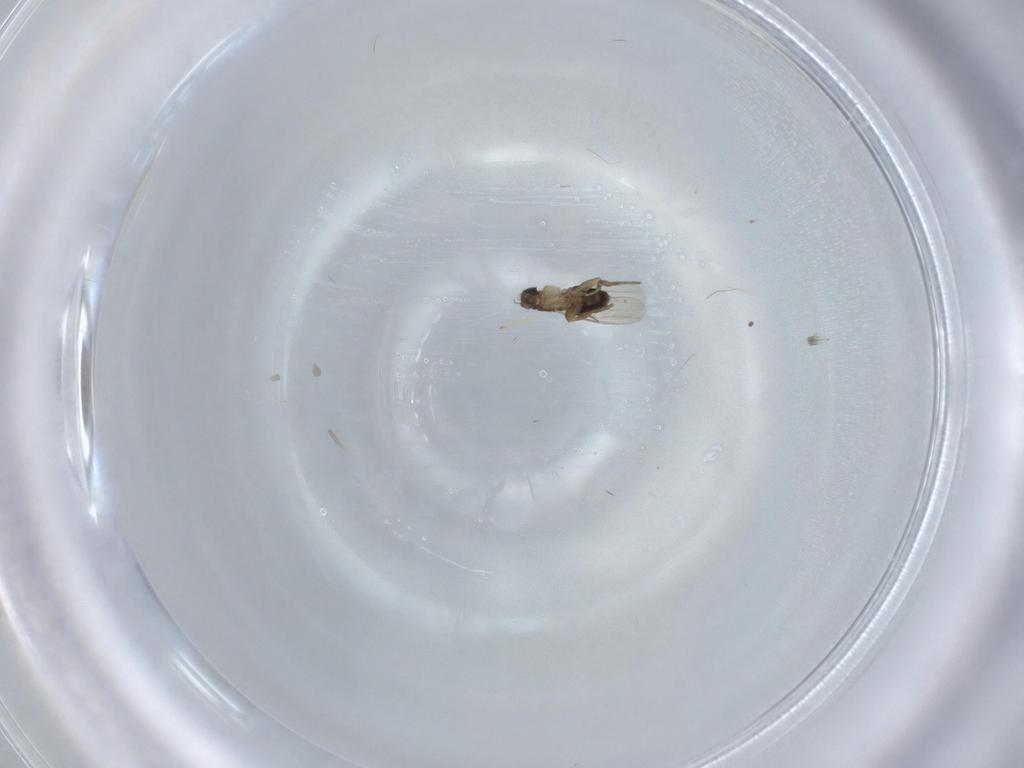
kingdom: Animalia
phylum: Arthropoda
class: Insecta
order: Diptera
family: Phoridae
